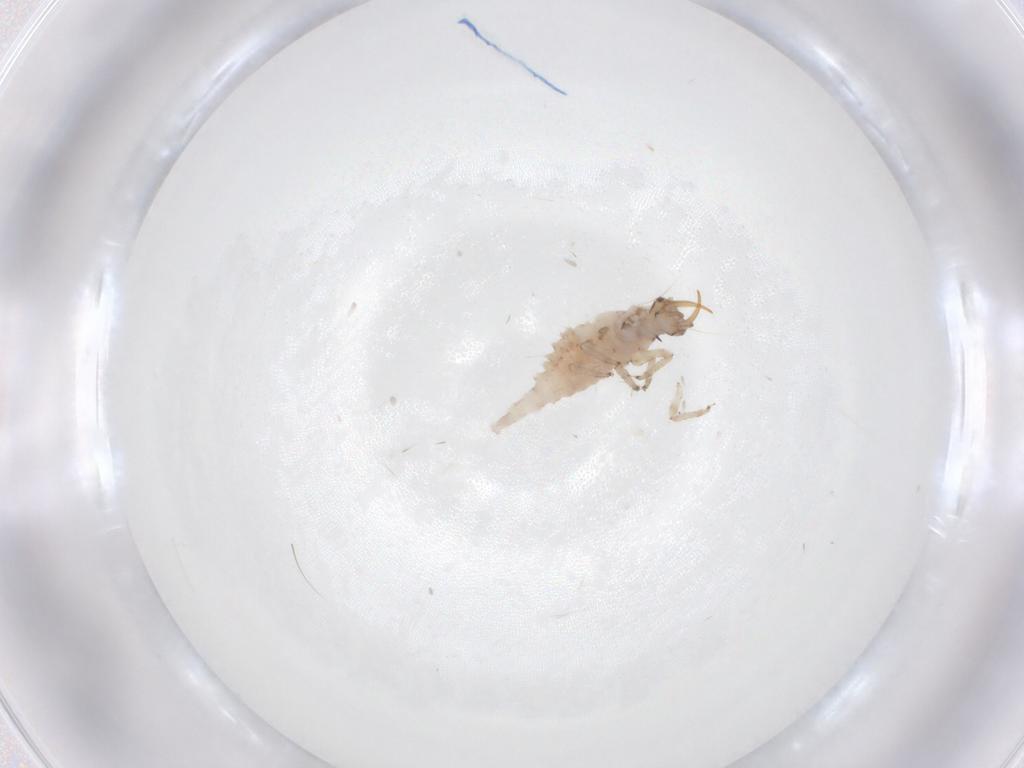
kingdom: Animalia
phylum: Arthropoda
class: Insecta
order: Neuroptera
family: Chrysopidae
